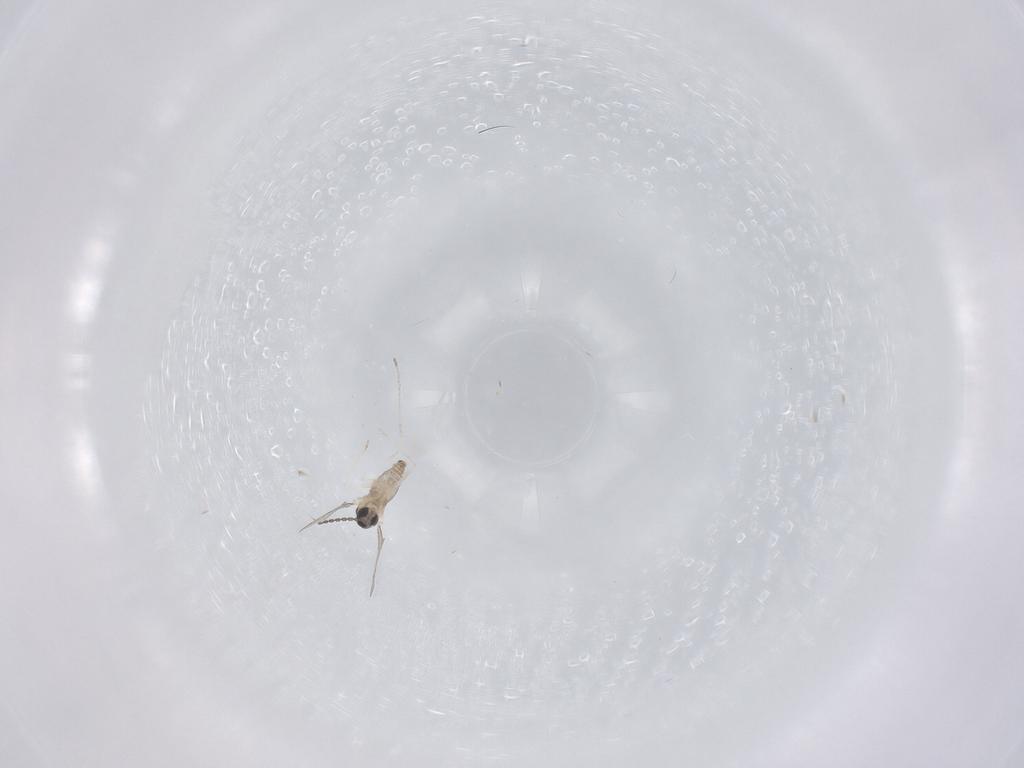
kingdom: Animalia
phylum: Arthropoda
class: Insecta
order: Diptera
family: Cecidomyiidae
